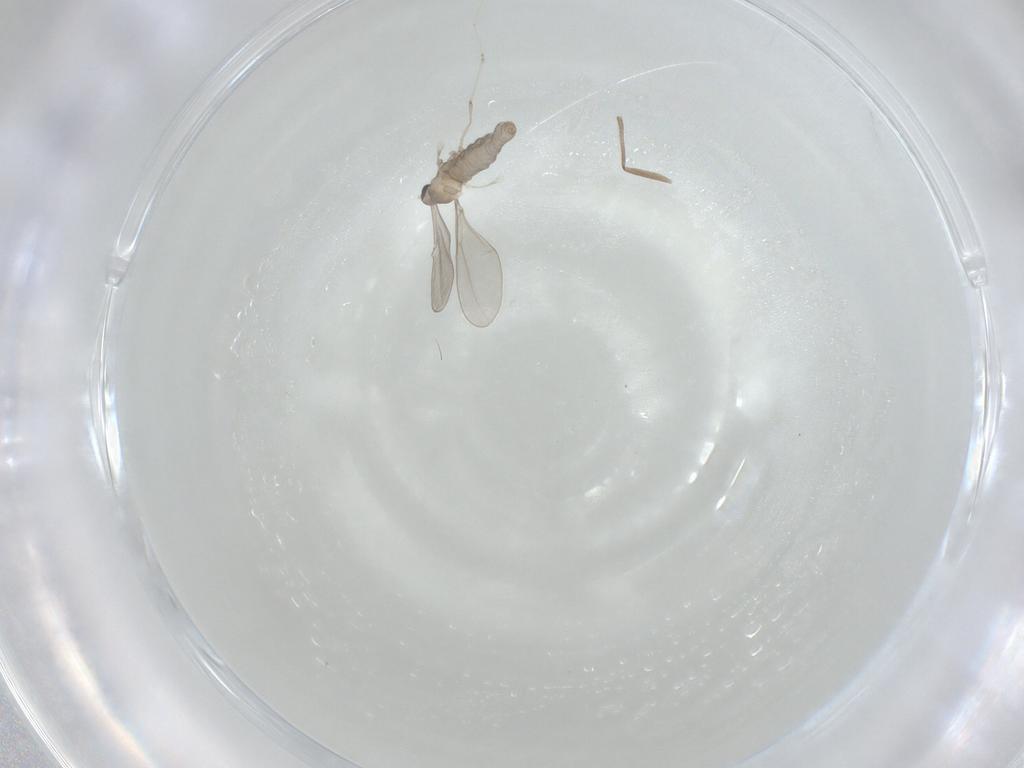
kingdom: Animalia
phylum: Arthropoda
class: Insecta
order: Diptera
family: Sciaridae
